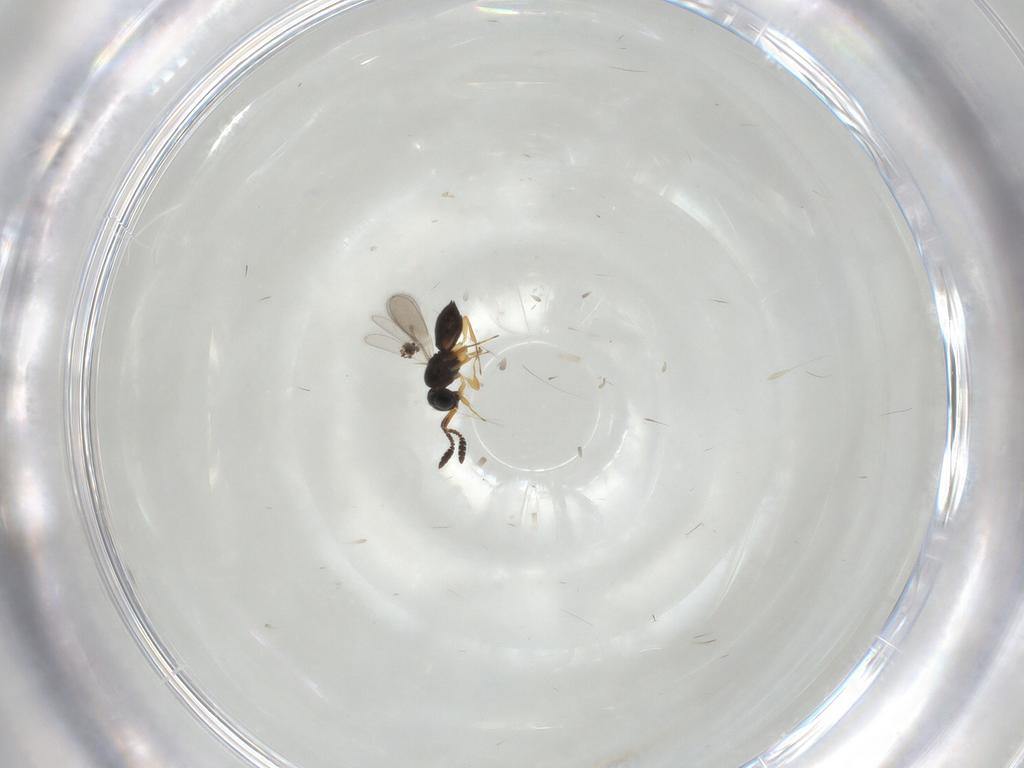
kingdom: Animalia
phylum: Arthropoda
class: Insecta
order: Hymenoptera
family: Scelionidae
